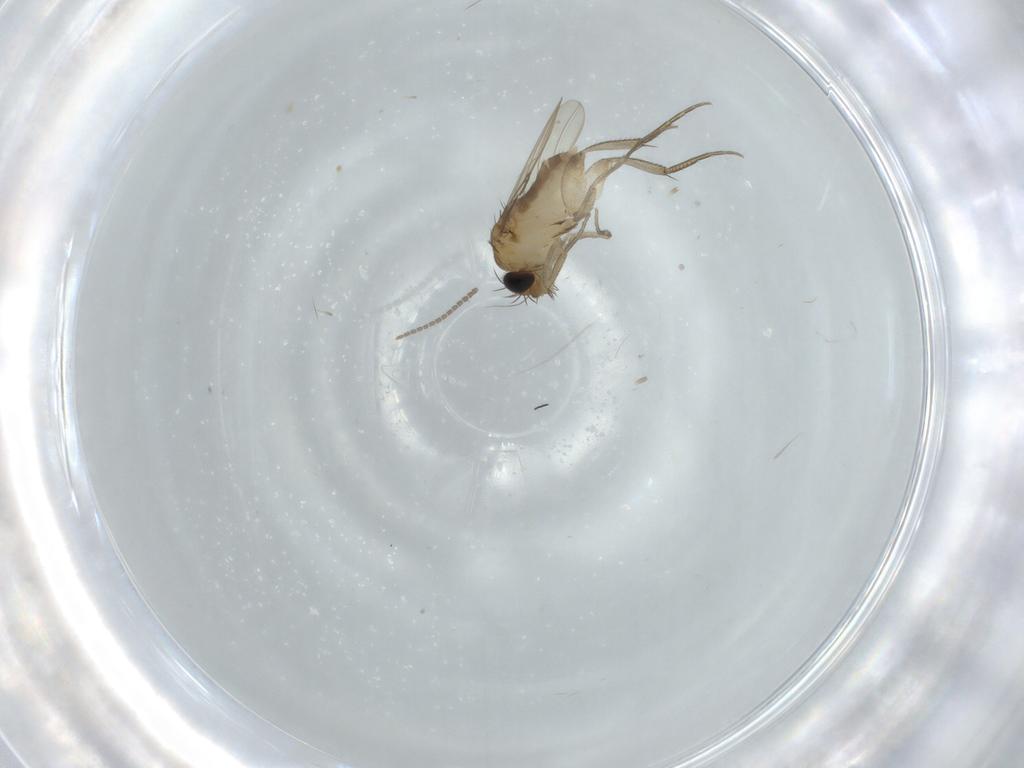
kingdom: Animalia
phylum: Arthropoda
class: Insecta
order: Diptera
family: Phoridae
